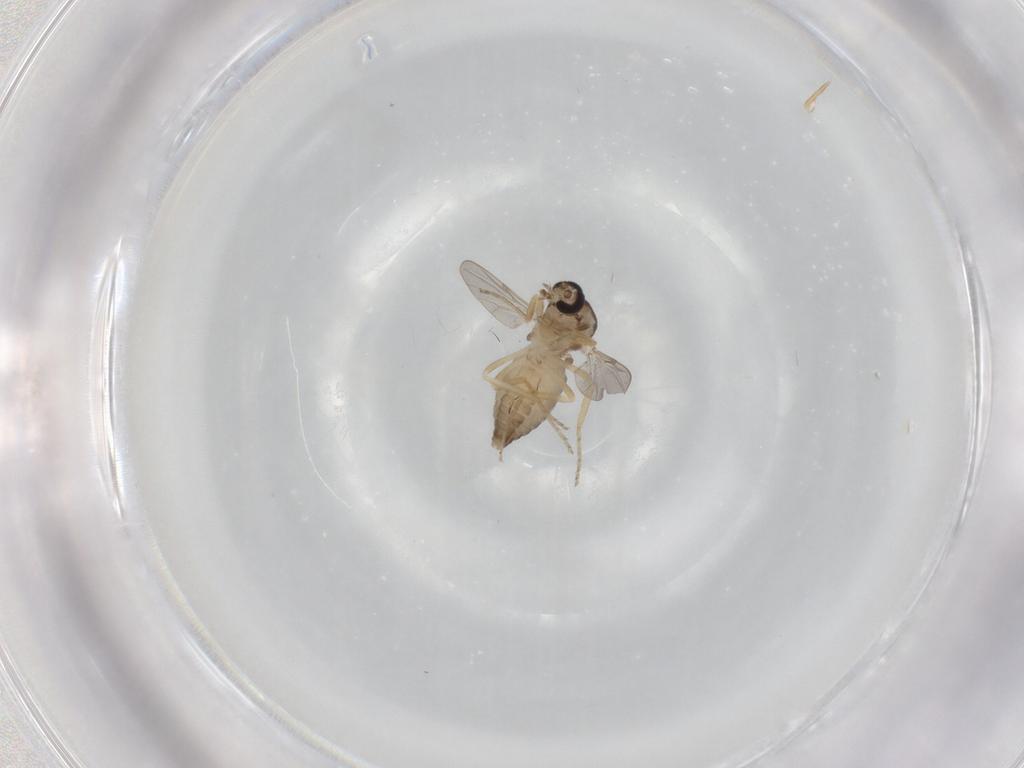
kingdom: Animalia
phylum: Arthropoda
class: Insecta
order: Diptera
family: Ceratopogonidae
